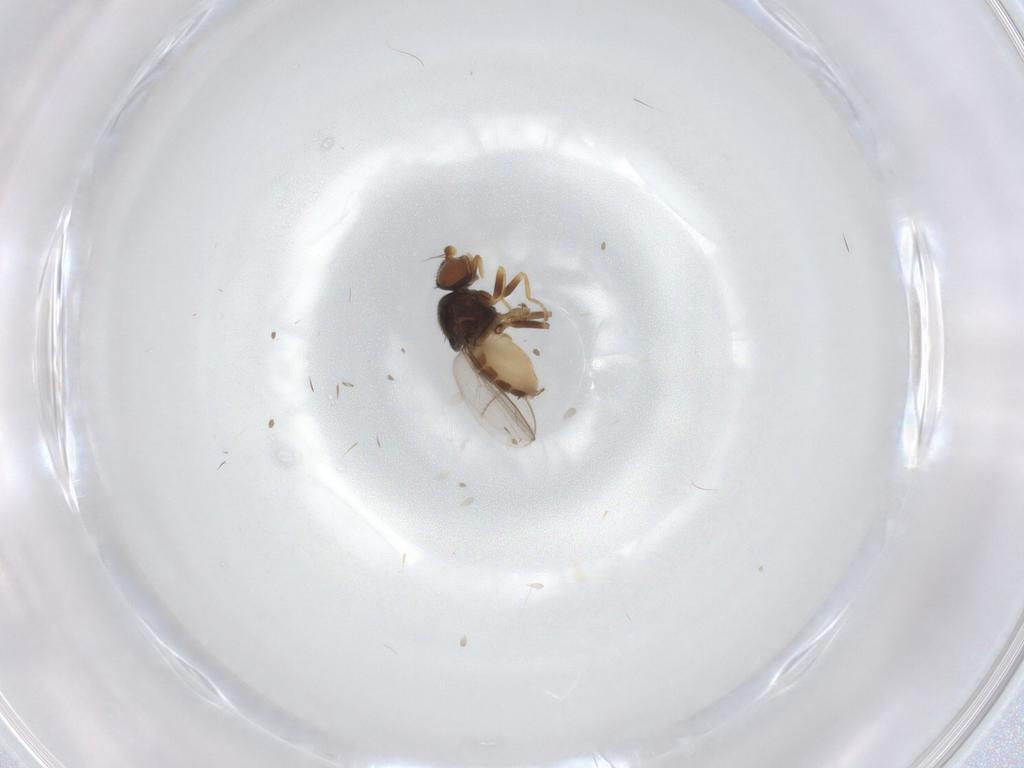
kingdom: Animalia
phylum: Arthropoda
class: Insecta
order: Diptera
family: Chloropidae
